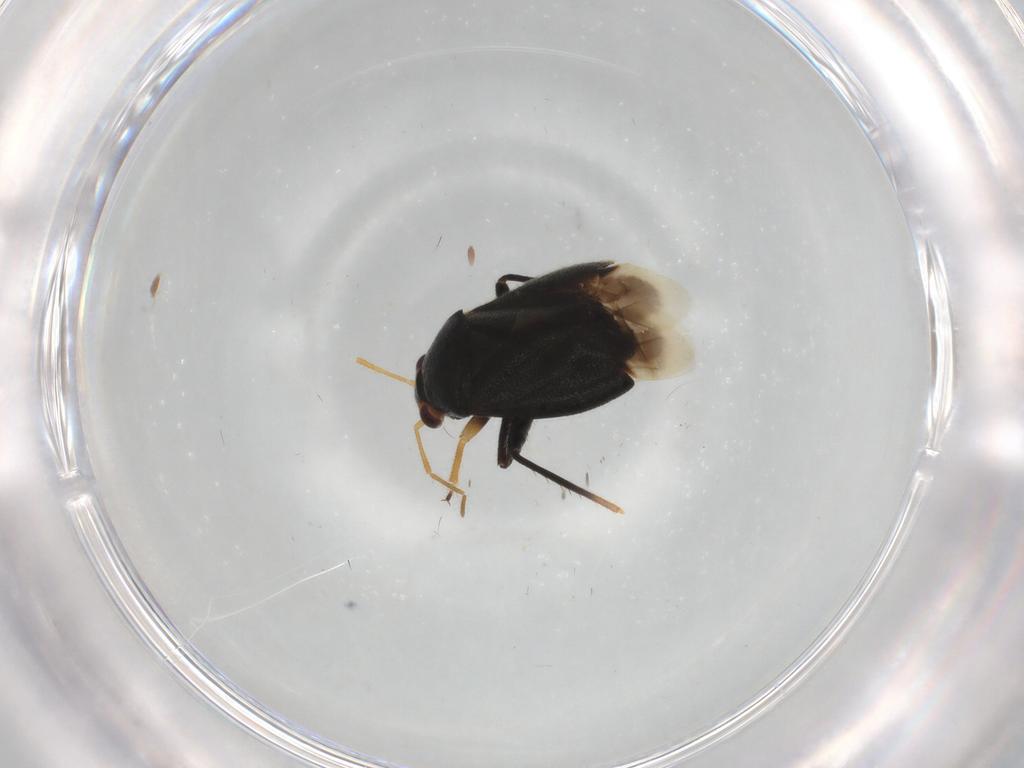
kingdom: Animalia
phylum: Arthropoda
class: Insecta
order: Hemiptera
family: Miridae
